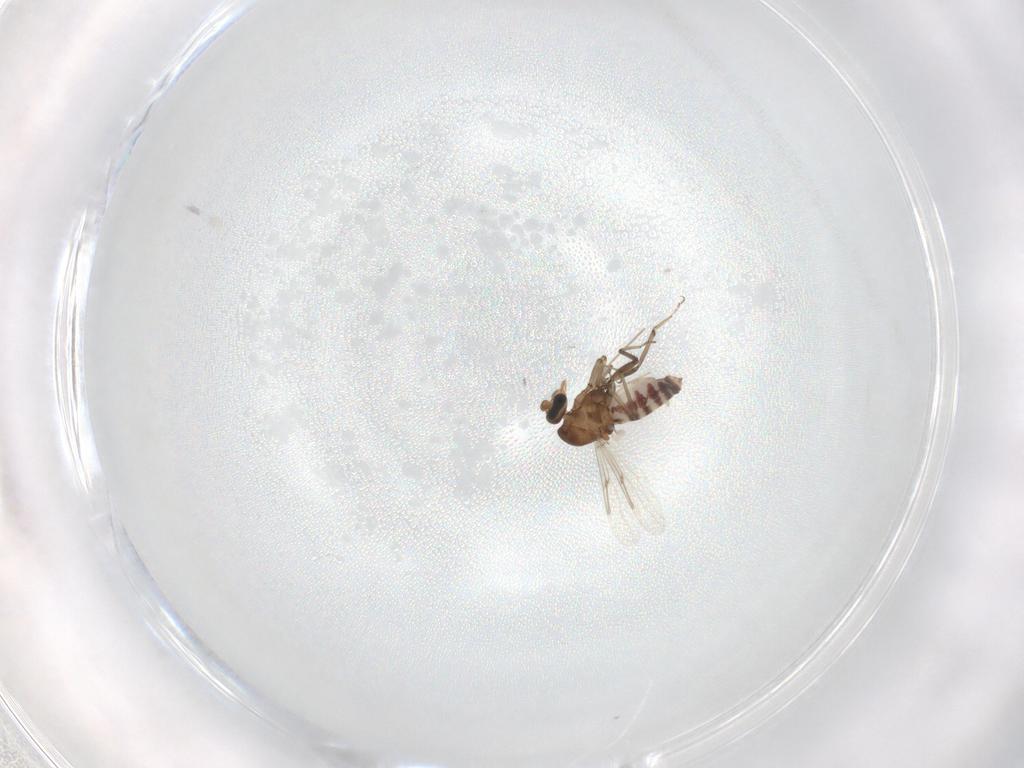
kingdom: Animalia
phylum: Arthropoda
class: Insecta
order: Diptera
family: Ceratopogonidae
